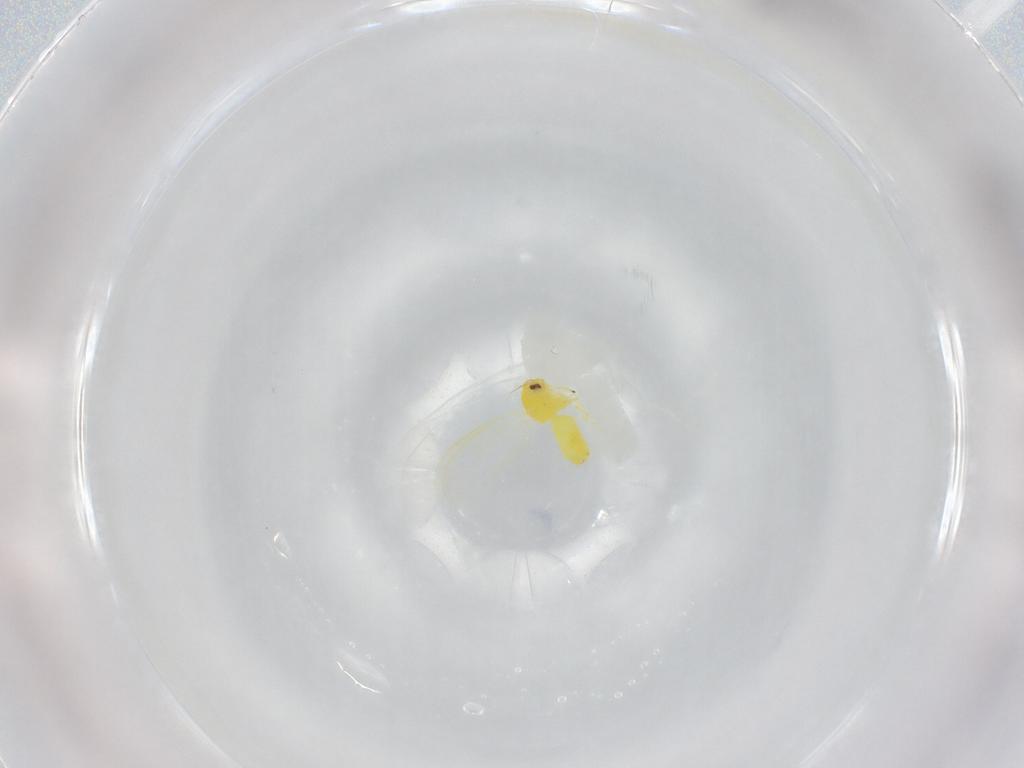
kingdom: Animalia
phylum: Arthropoda
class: Insecta
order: Hemiptera
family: Aleyrodidae
